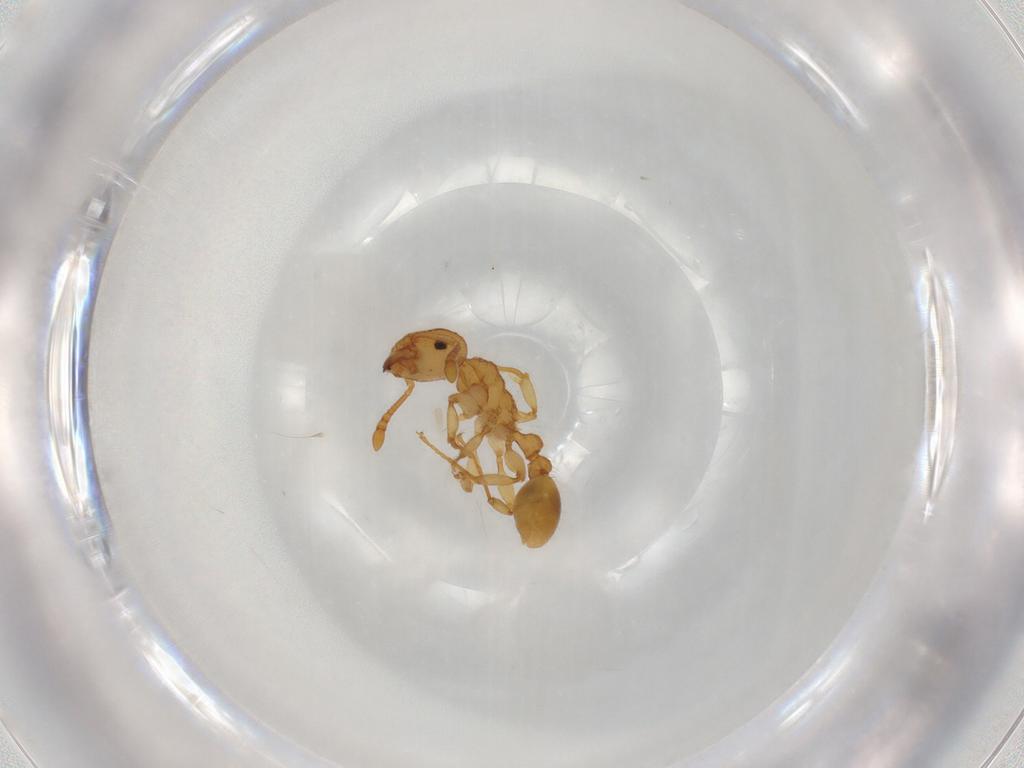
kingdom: Animalia
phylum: Arthropoda
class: Insecta
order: Hymenoptera
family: Formicidae
